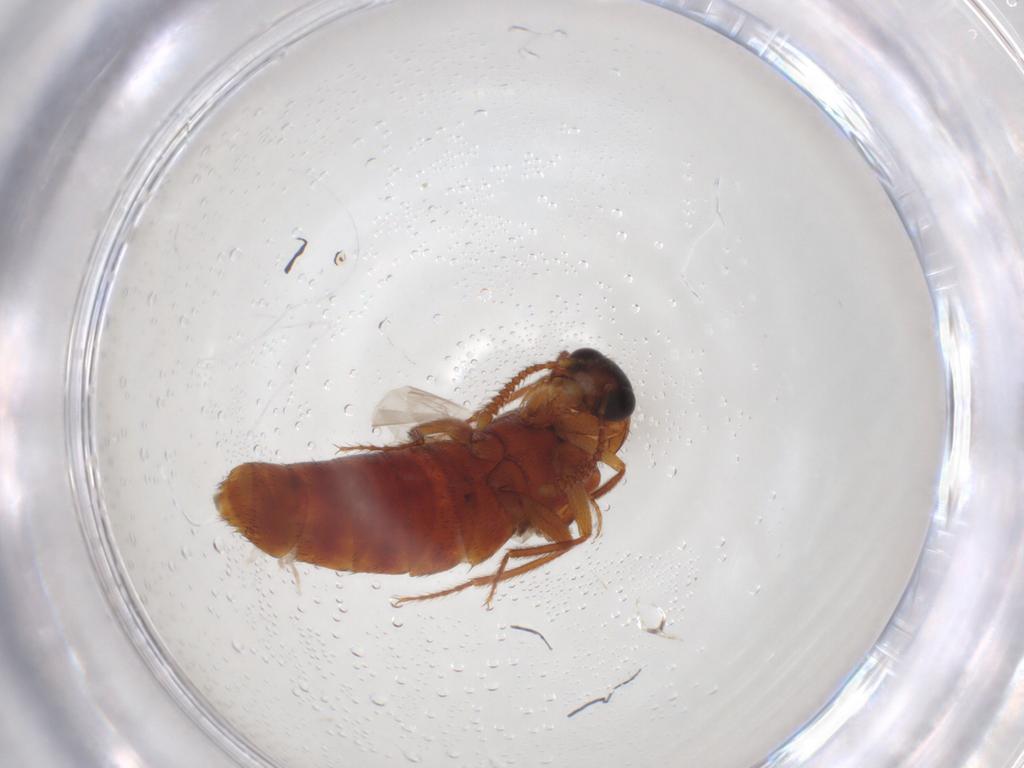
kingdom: Animalia
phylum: Arthropoda
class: Insecta
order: Coleoptera
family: Staphylinidae
